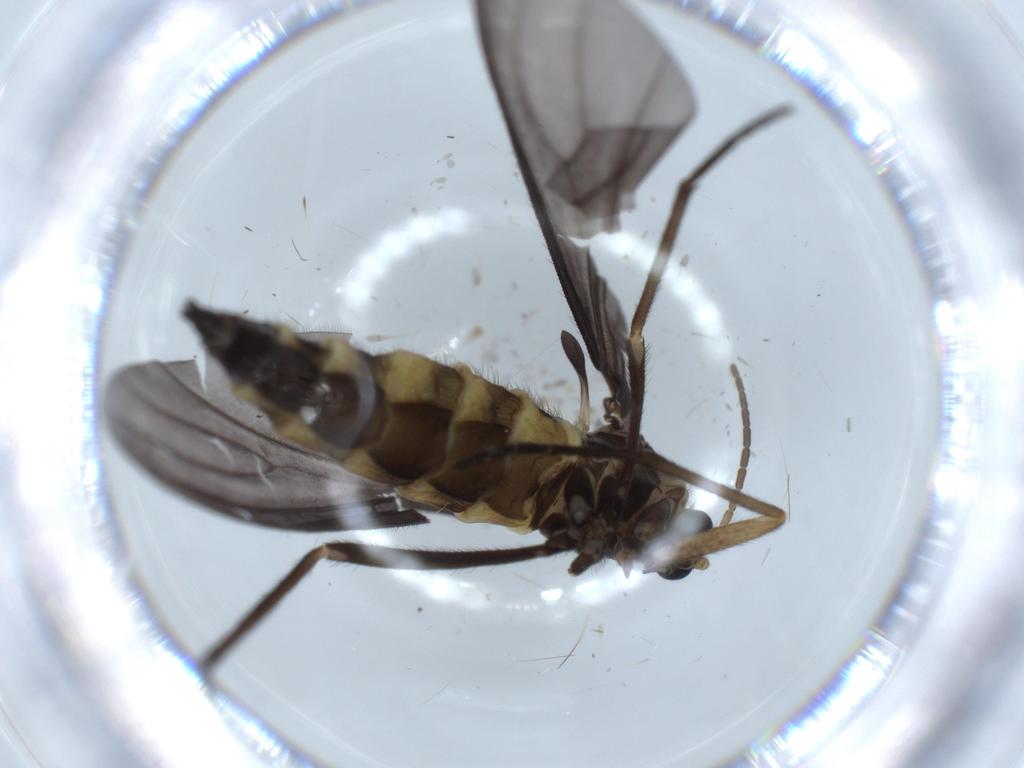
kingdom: Animalia
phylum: Arthropoda
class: Insecta
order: Diptera
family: Sciaridae
